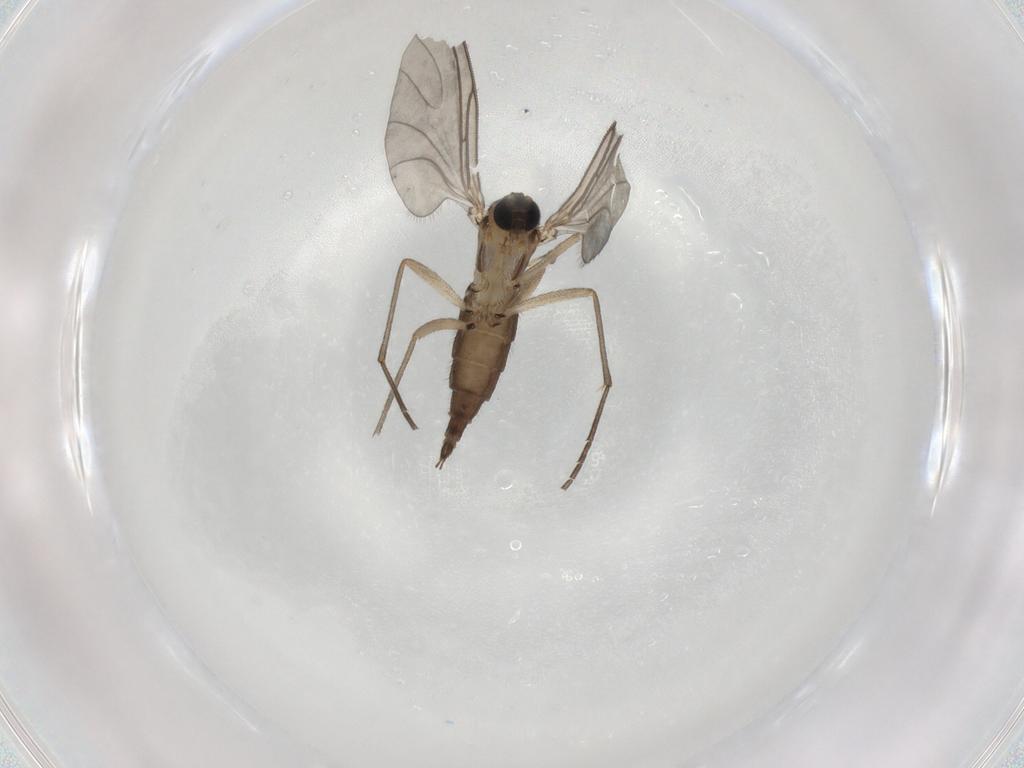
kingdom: Animalia
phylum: Arthropoda
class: Insecta
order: Diptera
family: Sciaridae
